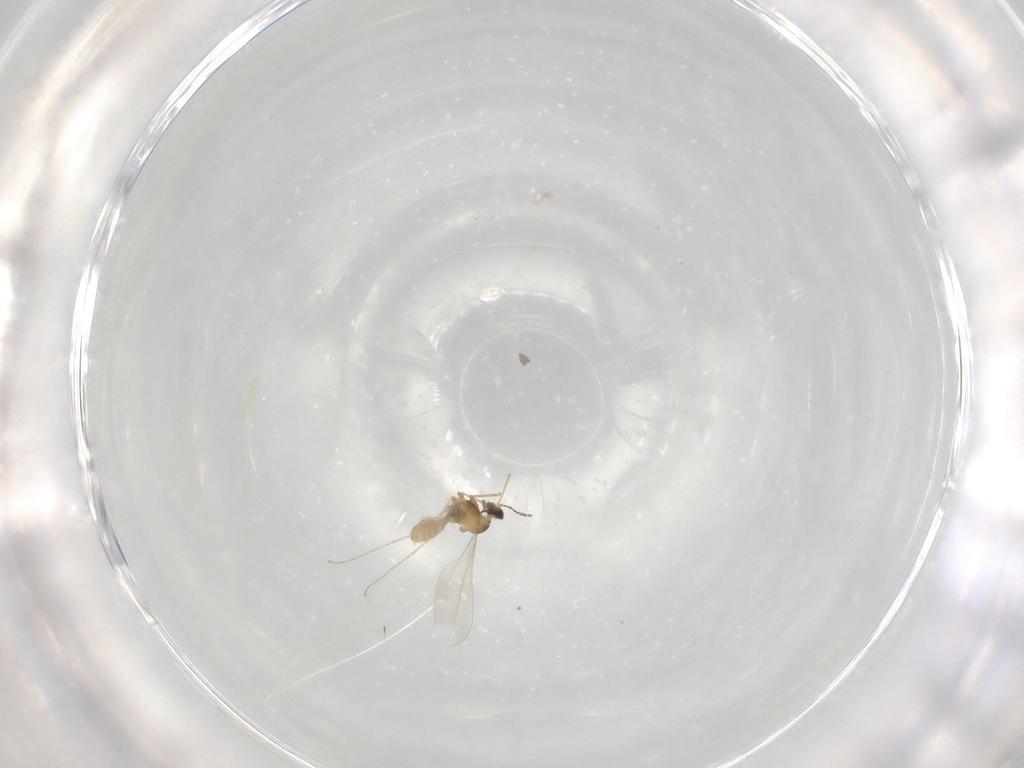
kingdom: Animalia
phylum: Arthropoda
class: Insecta
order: Diptera
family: Cecidomyiidae
